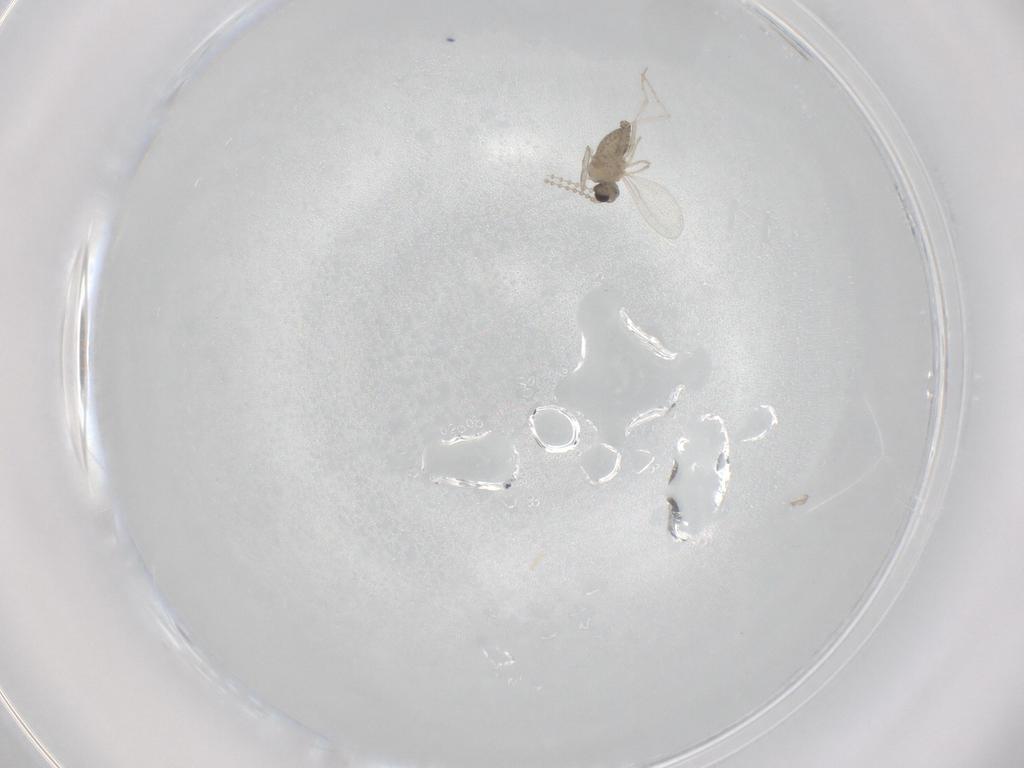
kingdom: Animalia
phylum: Arthropoda
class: Insecta
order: Diptera
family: Cecidomyiidae
